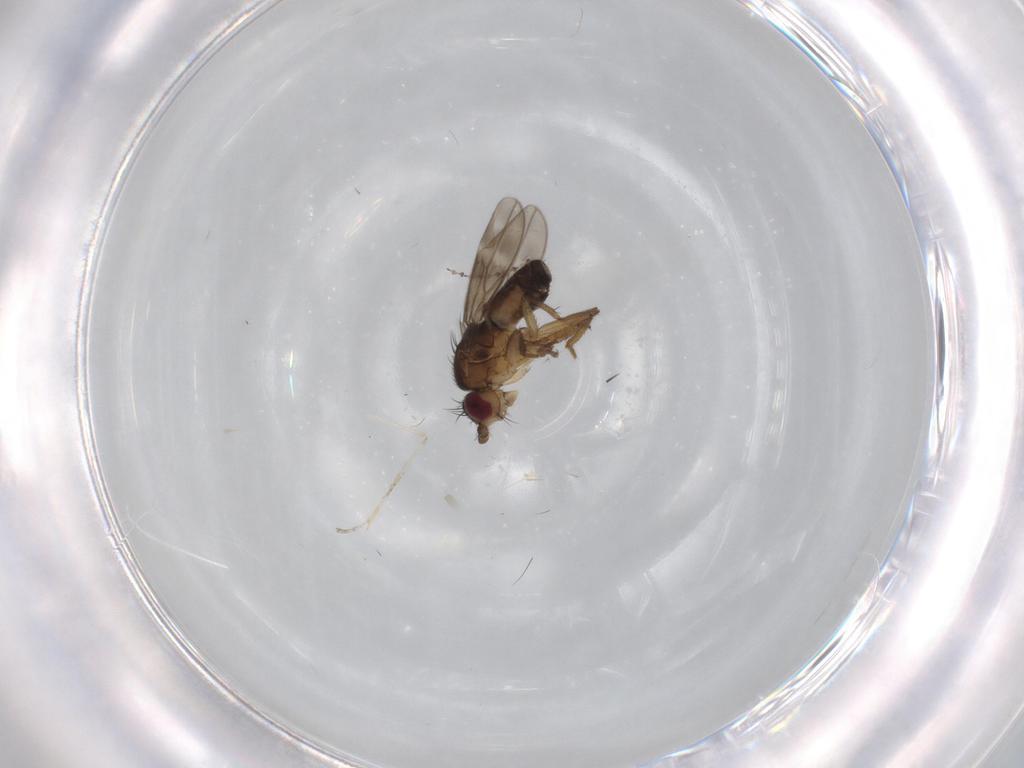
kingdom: Animalia
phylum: Arthropoda
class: Insecta
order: Diptera
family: Sphaeroceridae
